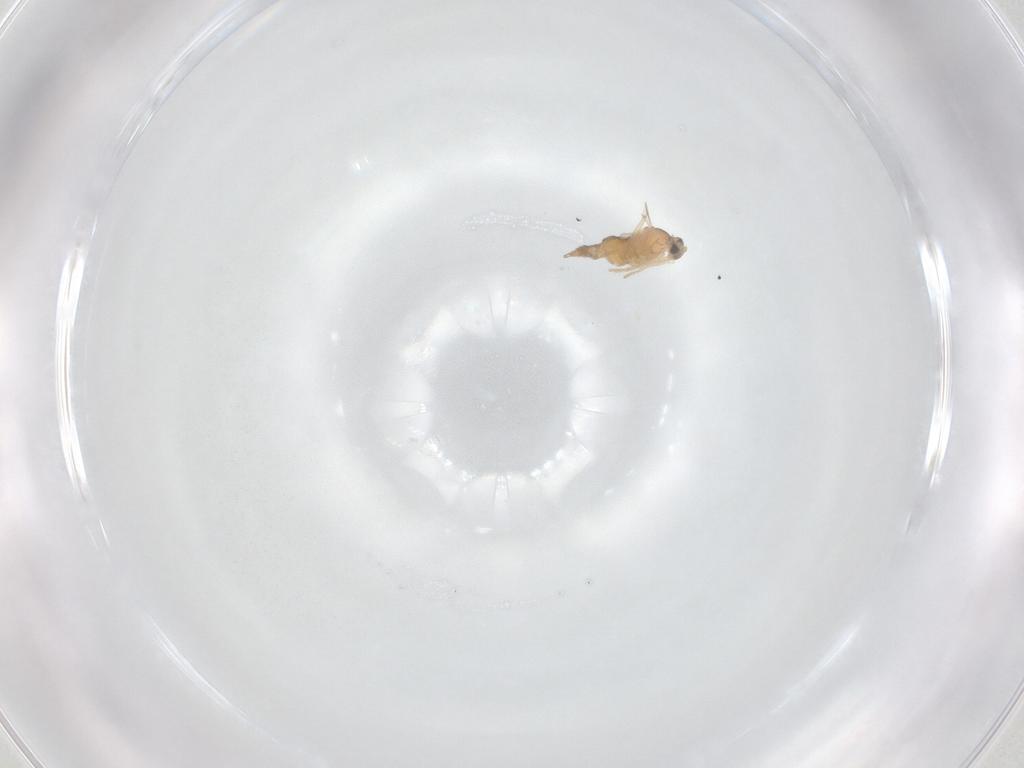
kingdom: Animalia
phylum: Arthropoda
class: Insecta
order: Diptera
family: Cecidomyiidae
